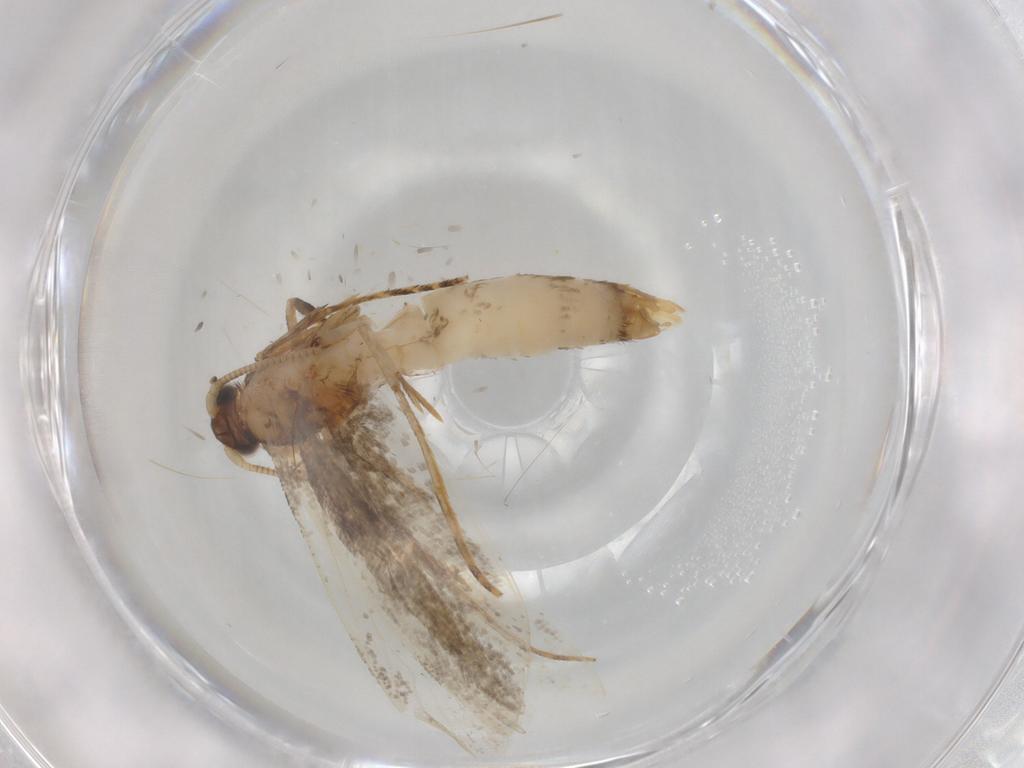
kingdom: Animalia
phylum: Arthropoda
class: Insecta
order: Lepidoptera
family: Tineidae
